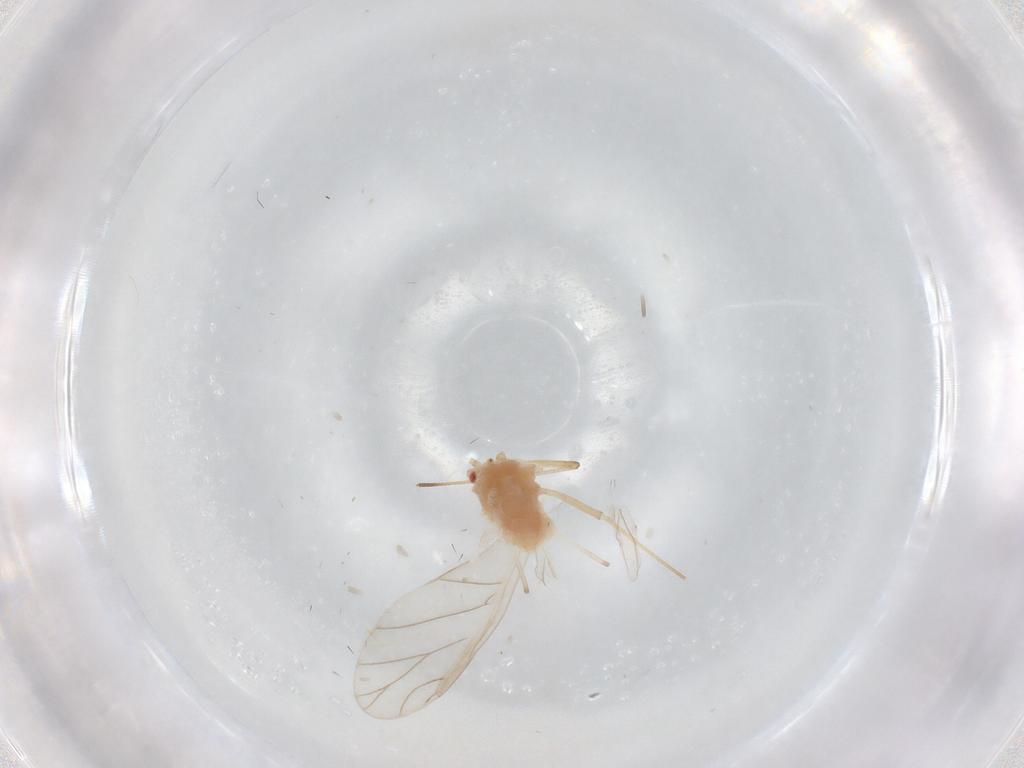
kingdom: Animalia
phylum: Arthropoda
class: Insecta
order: Hemiptera
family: Aphididae
